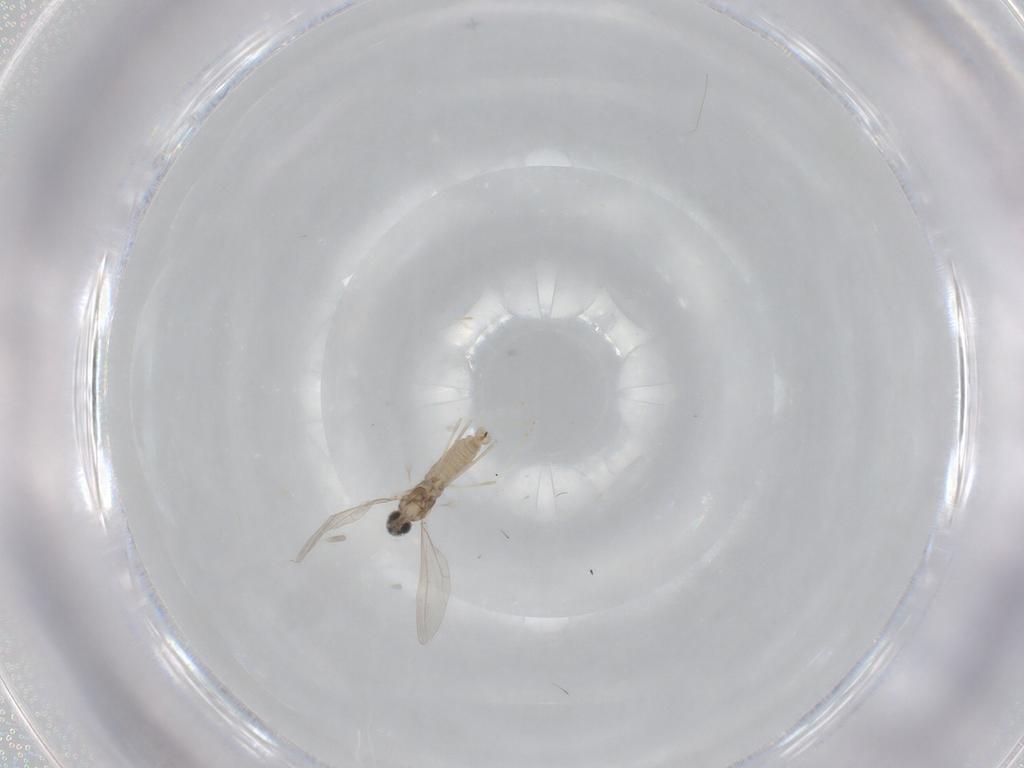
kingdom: Animalia
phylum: Arthropoda
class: Insecta
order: Diptera
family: Cecidomyiidae
